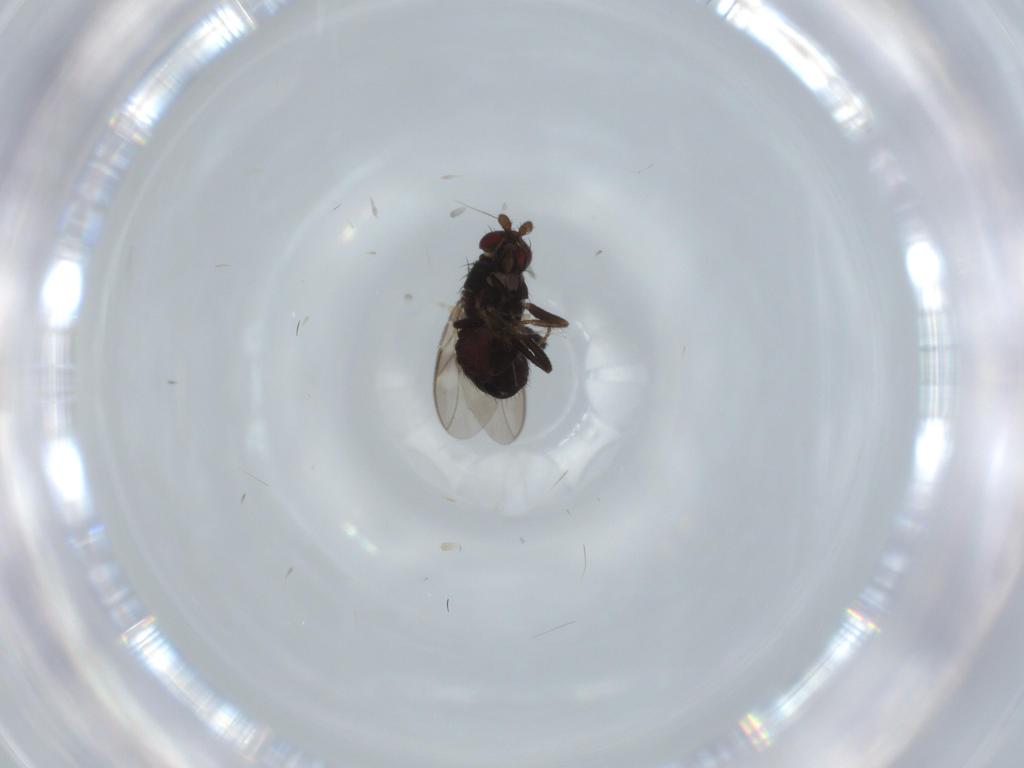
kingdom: Animalia
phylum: Arthropoda
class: Insecta
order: Diptera
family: Sphaeroceridae
